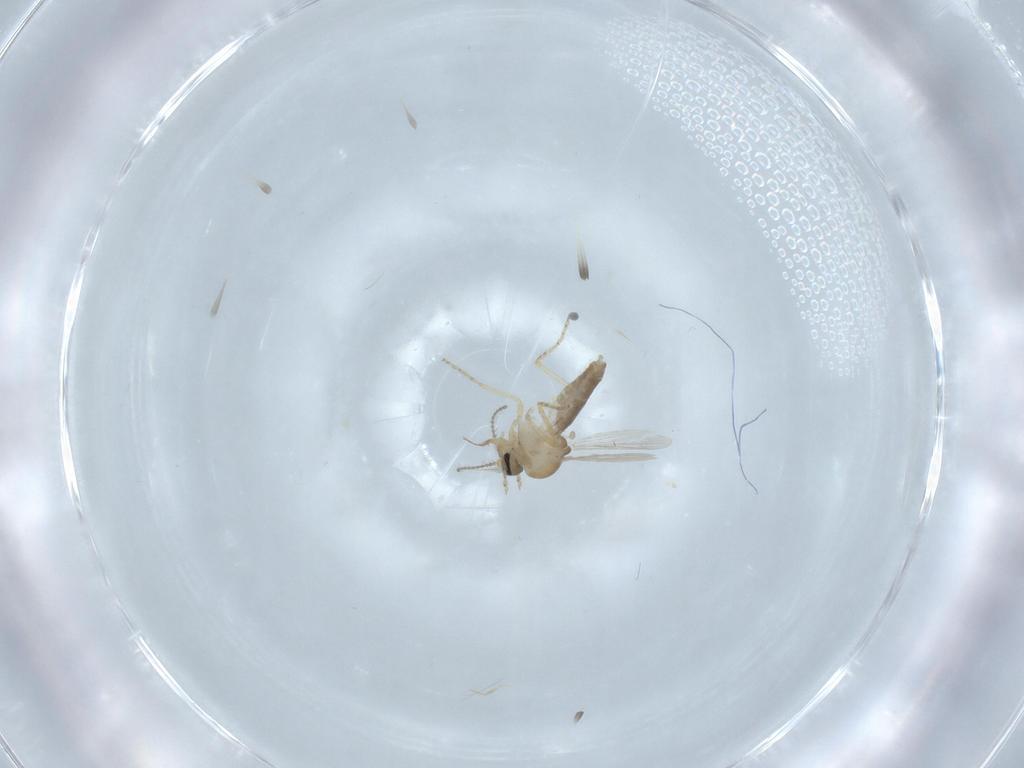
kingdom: Animalia
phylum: Arthropoda
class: Insecta
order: Diptera
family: Ceratopogonidae
